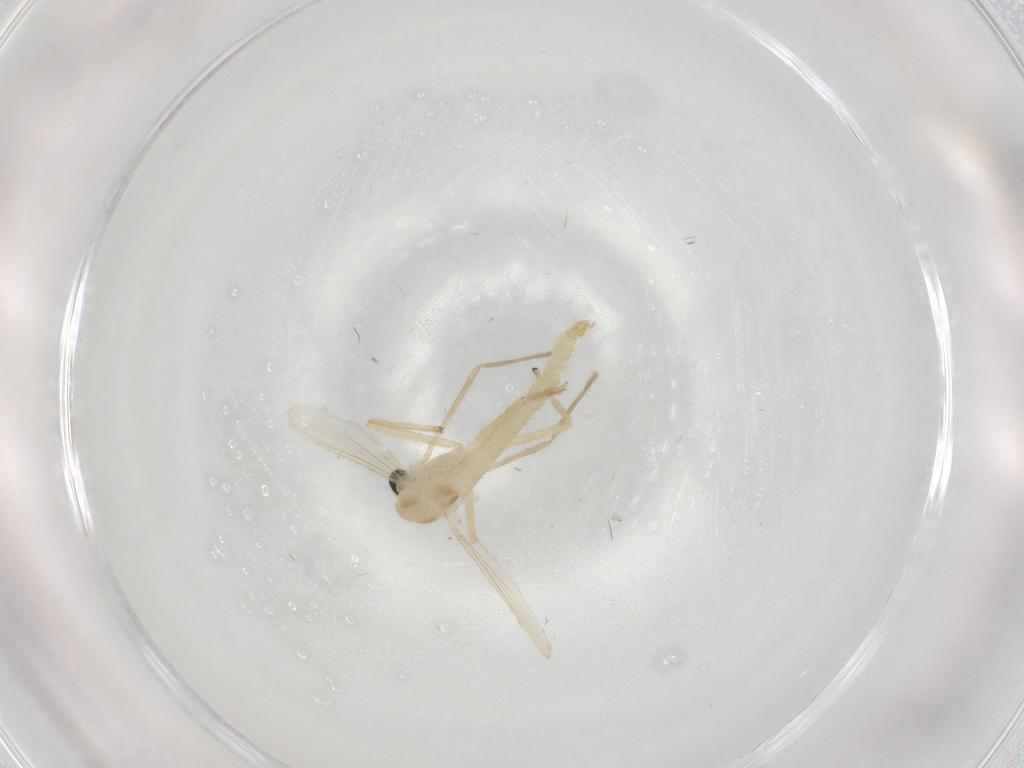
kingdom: Animalia
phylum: Arthropoda
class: Insecta
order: Diptera
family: Chironomidae
